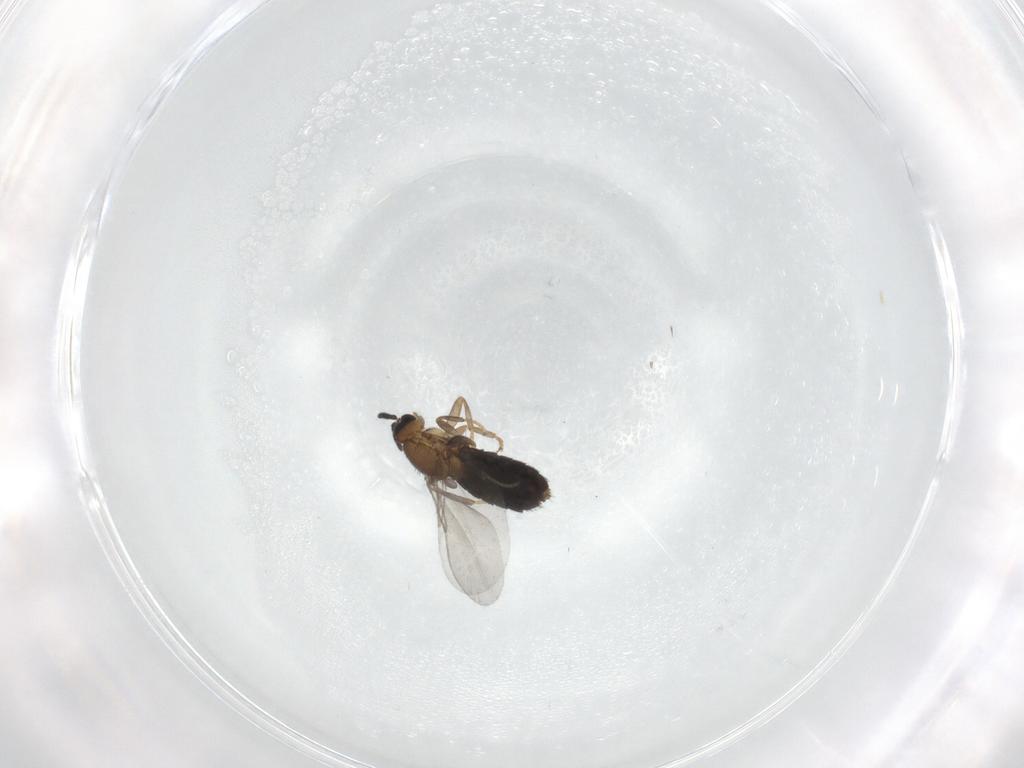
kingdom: Animalia
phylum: Arthropoda
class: Insecta
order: Diptera
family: Scatopsidae
